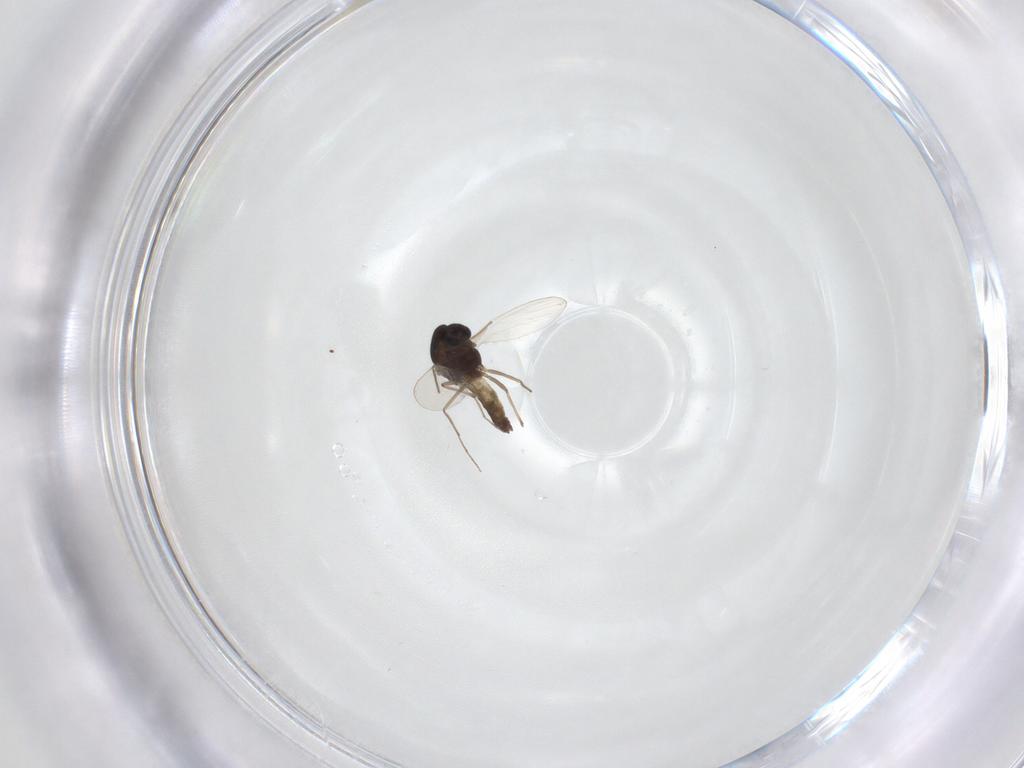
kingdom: Animalia
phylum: Arthropoda
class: Insecta
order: Diptera
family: Chironomidae
